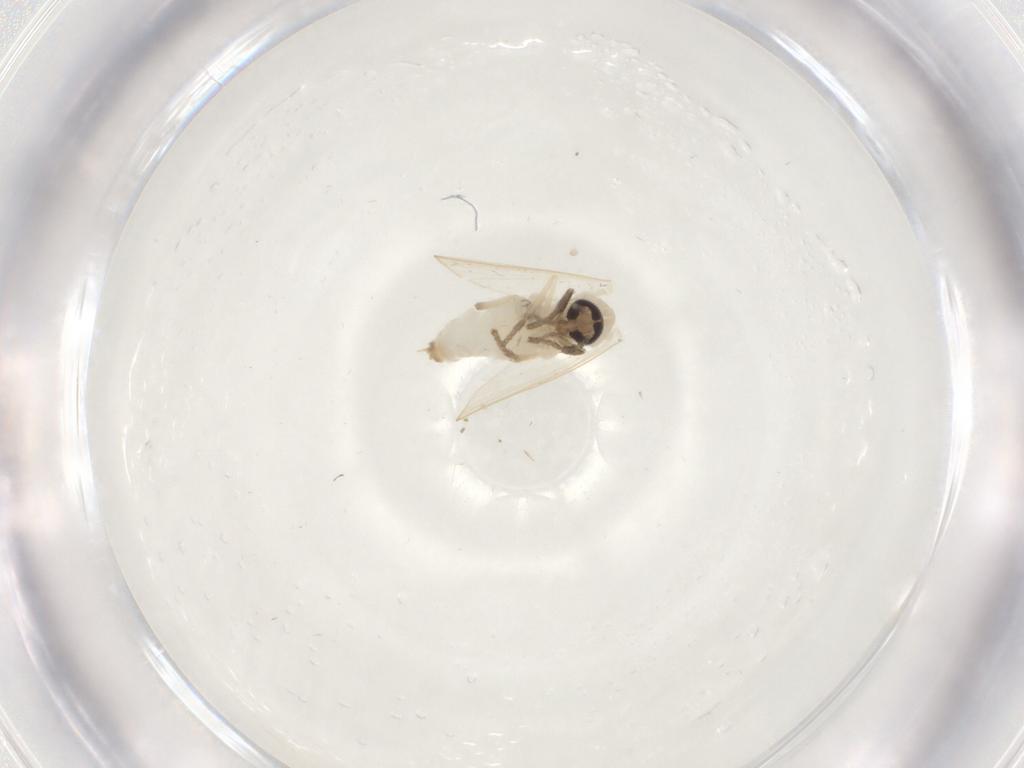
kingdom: Animalia
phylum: Arthropoda
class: Insecta
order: Diptera
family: Psychodidae
